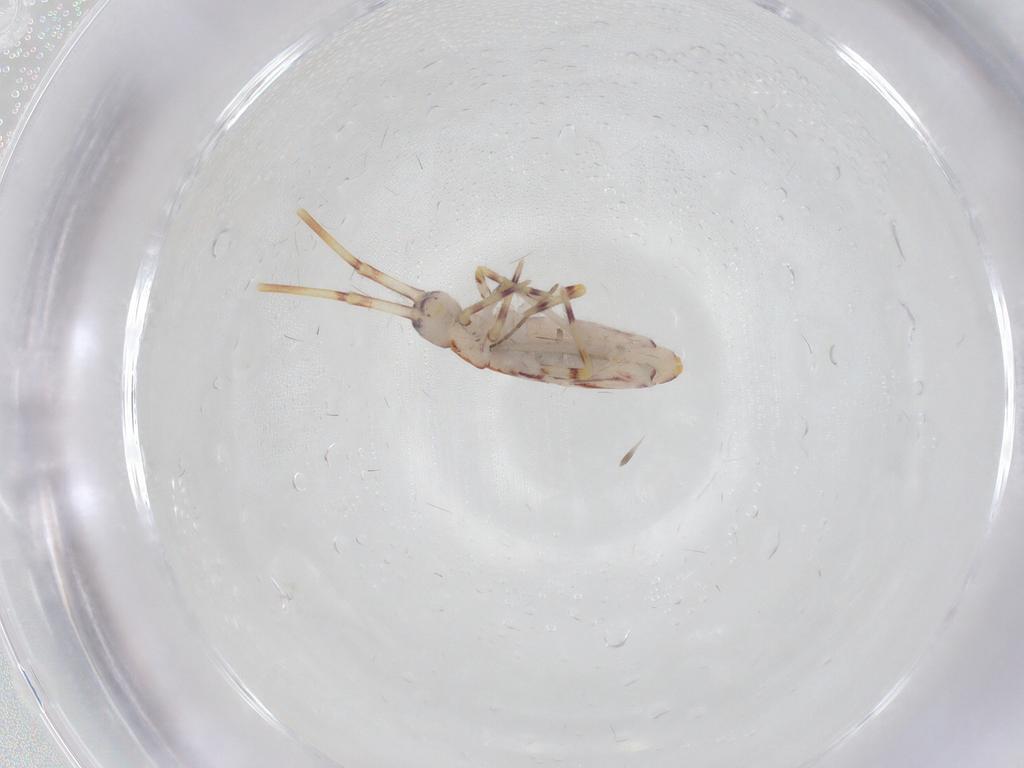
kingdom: Animalia
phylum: Arthropoda
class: Collembola
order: Entomobryomorpha
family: Entomobryidae
